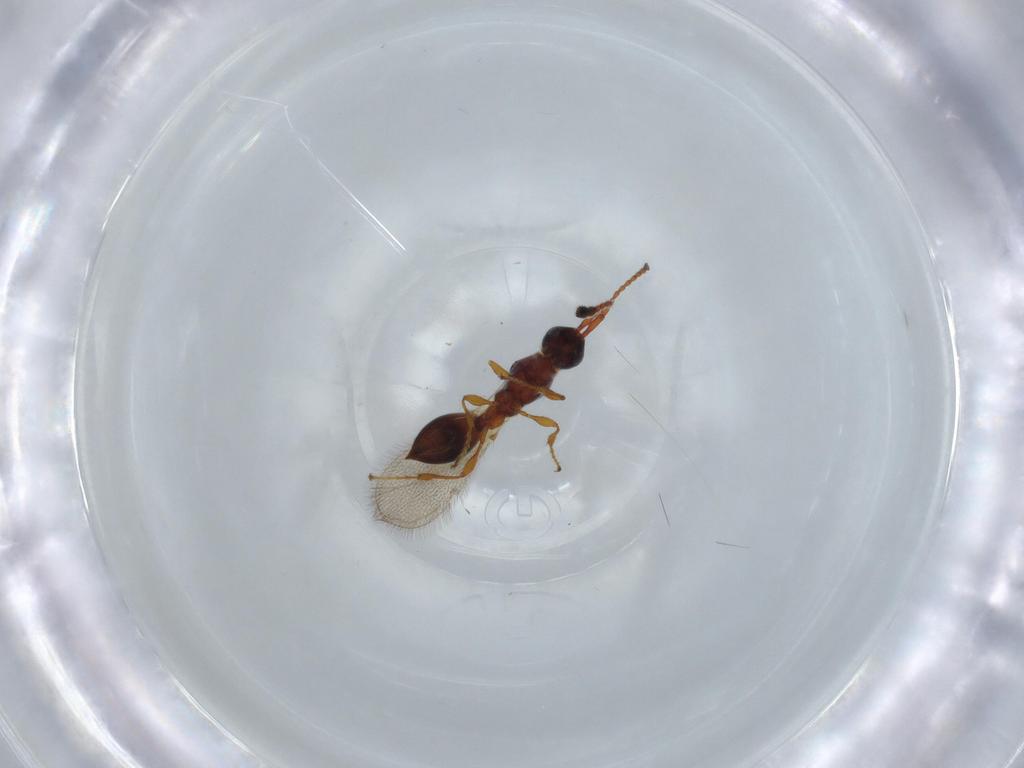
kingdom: Animalia
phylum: Arthropoda
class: Insecta
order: Hymenoptera
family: Diapriidae
